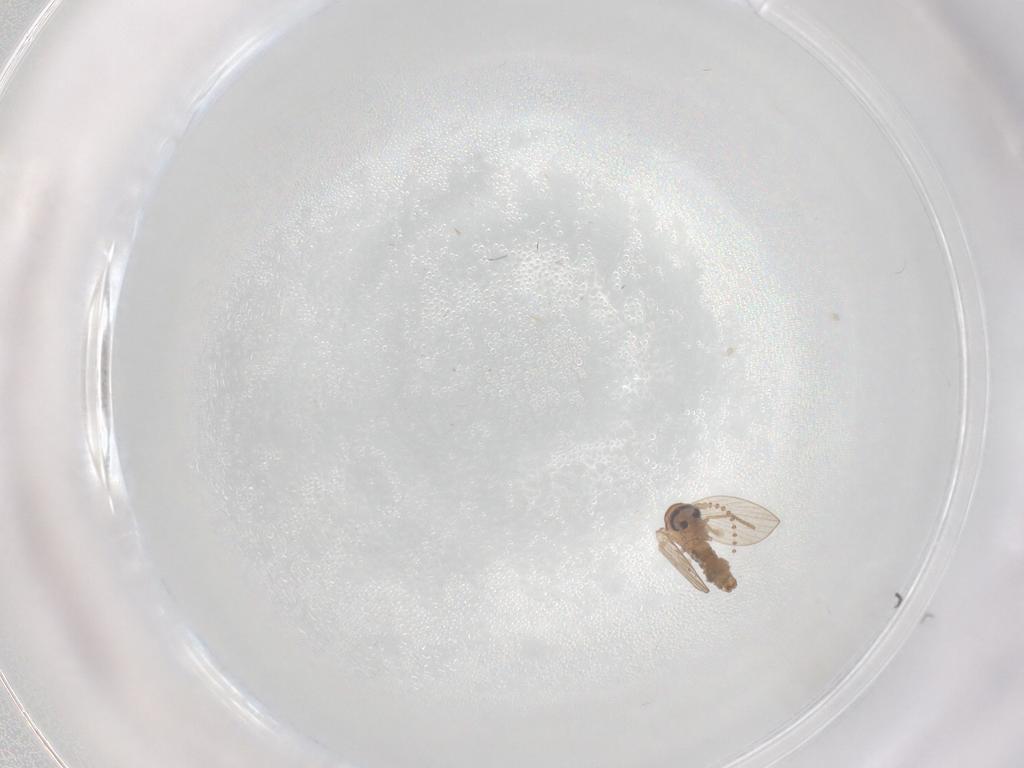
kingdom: Animalia
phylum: Arthropoda
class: Insecta
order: Diptera
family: Psychodidae
